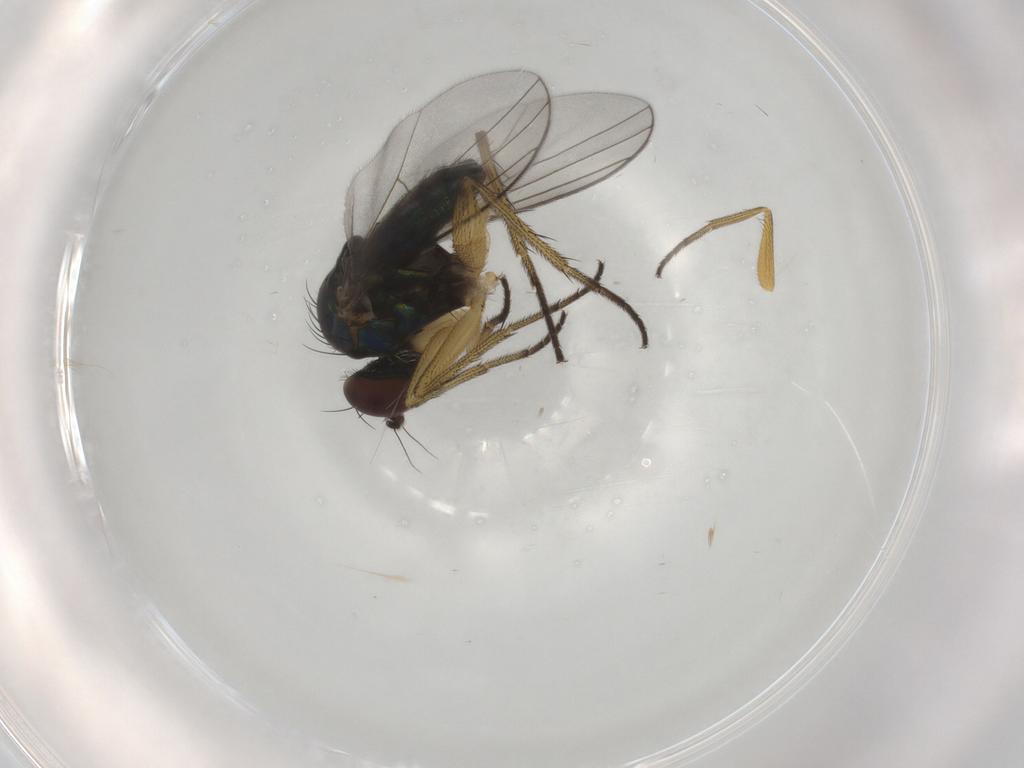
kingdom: Animalia
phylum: Arthropoda
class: Insecta
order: Diptera
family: Dolichopodidae
